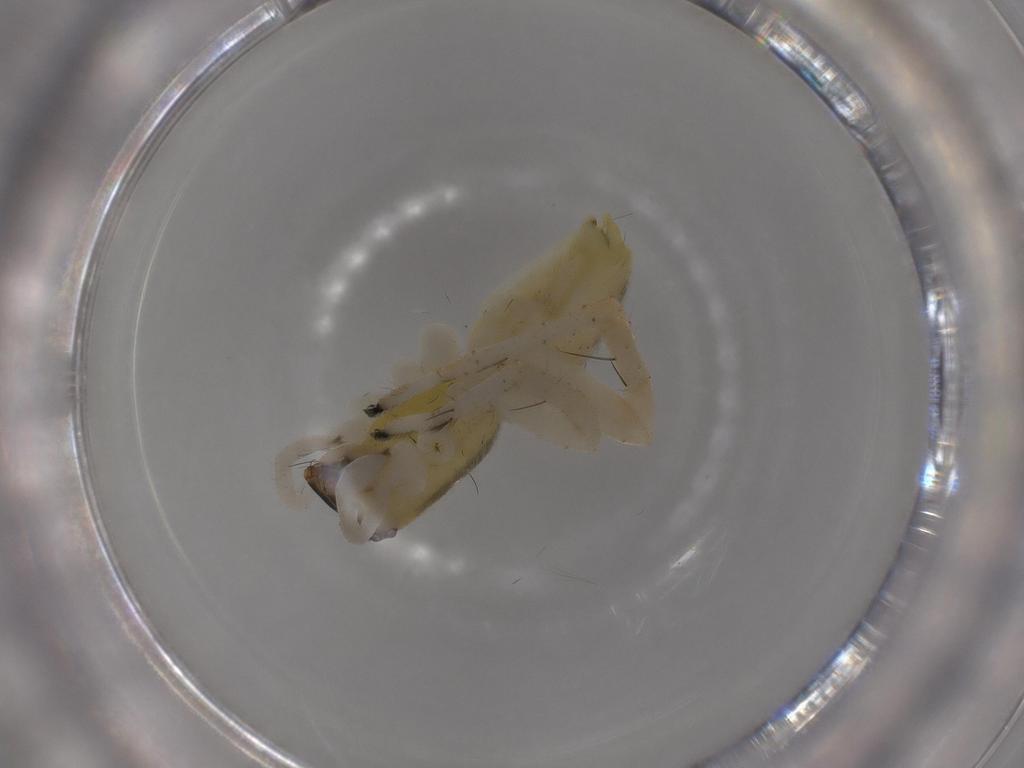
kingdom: Animalia
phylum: Arthropoda
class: Arachnida
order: Araneae
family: Anyphaenidae
